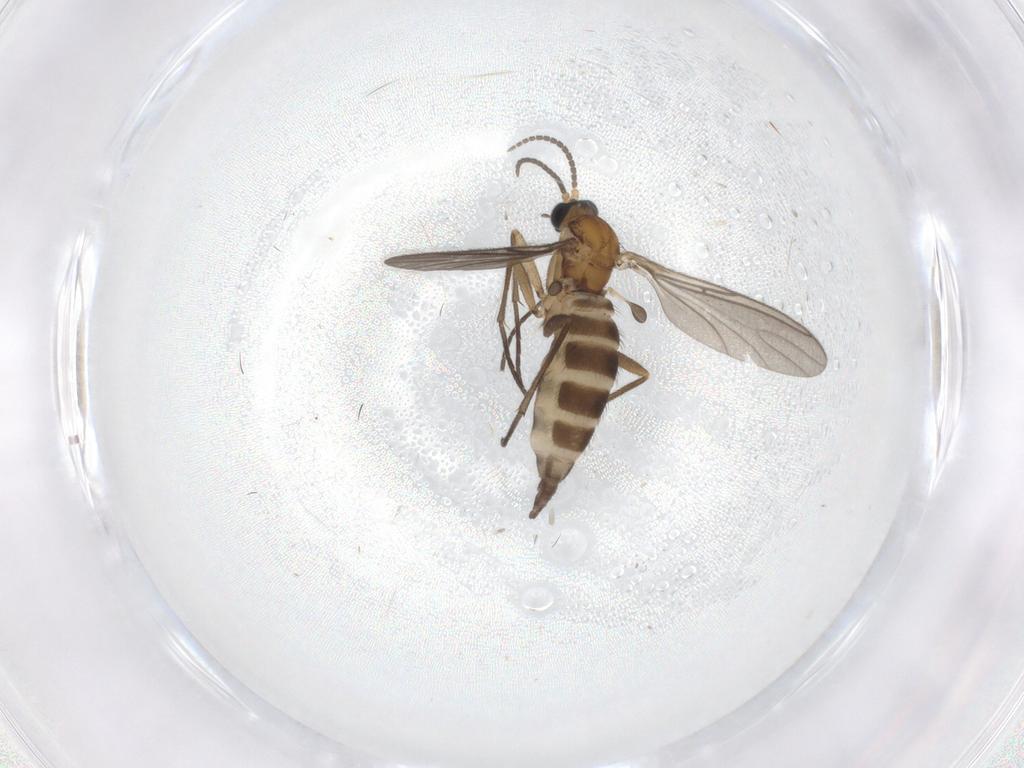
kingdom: Animalia
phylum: Arthropoda
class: Insecta
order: Diptera
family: Sciaridae
